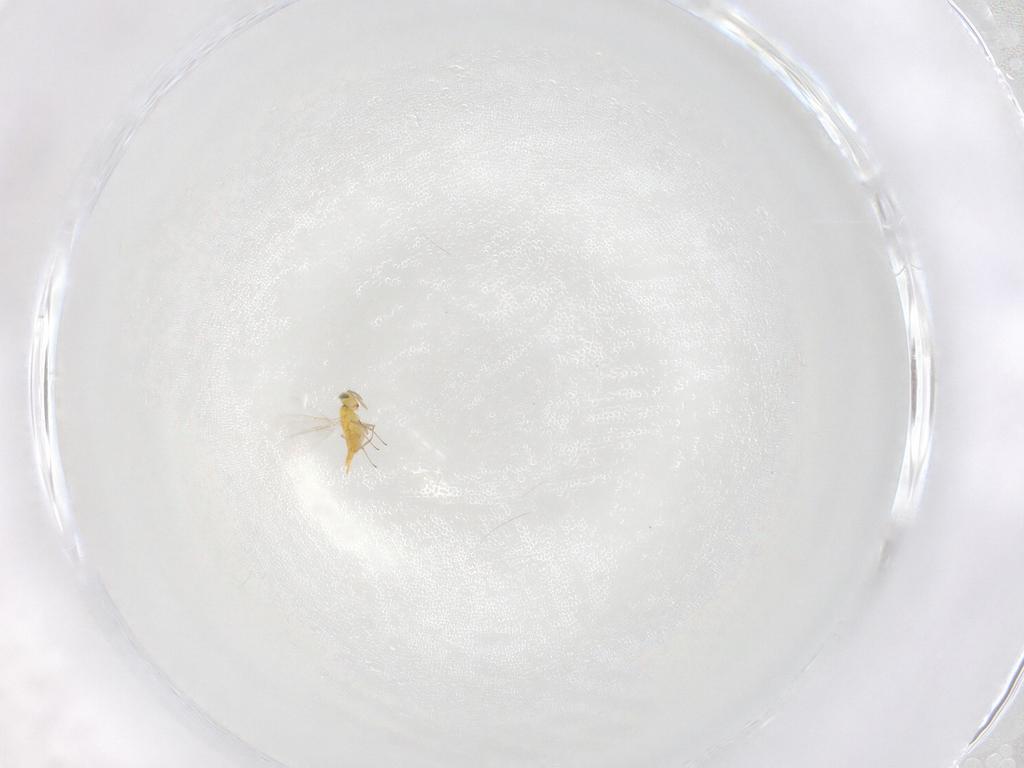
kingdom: Animalia
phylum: Arthropoda
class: Insecta
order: Hymenoptera
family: Aphelinidae
